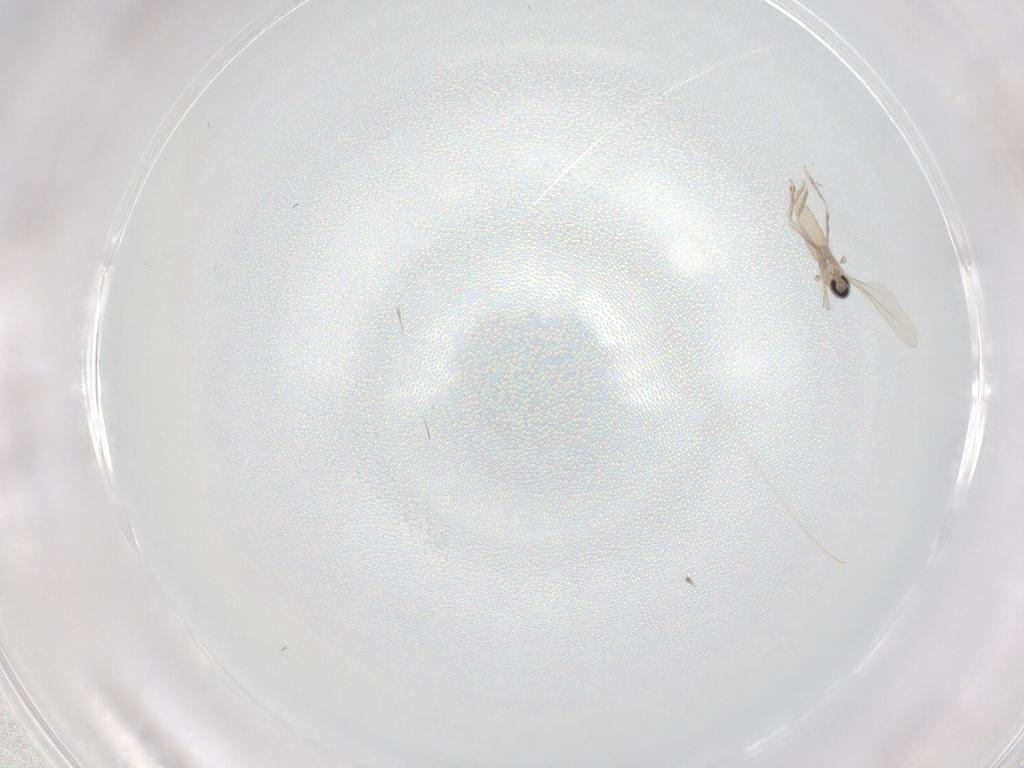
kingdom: Animalia
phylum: Arthropoda
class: Insecta
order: Diptera
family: Cecidomyiidae
